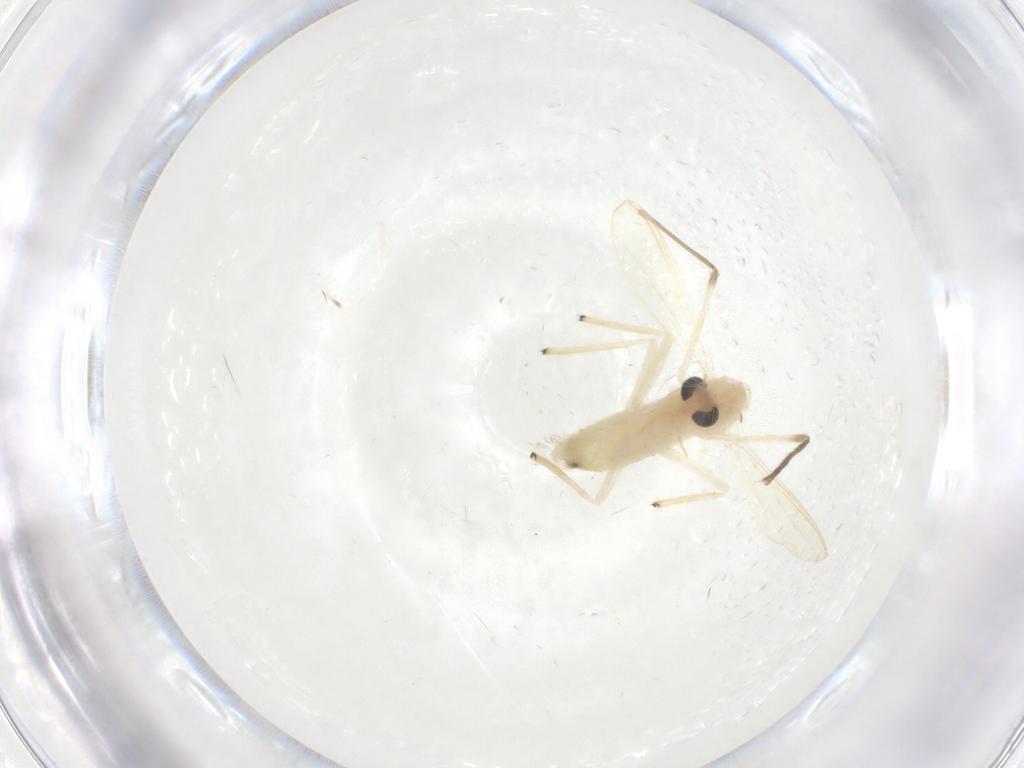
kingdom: Animalia
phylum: Arthropoda
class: Insecta
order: Diptera
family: Chironomidae
